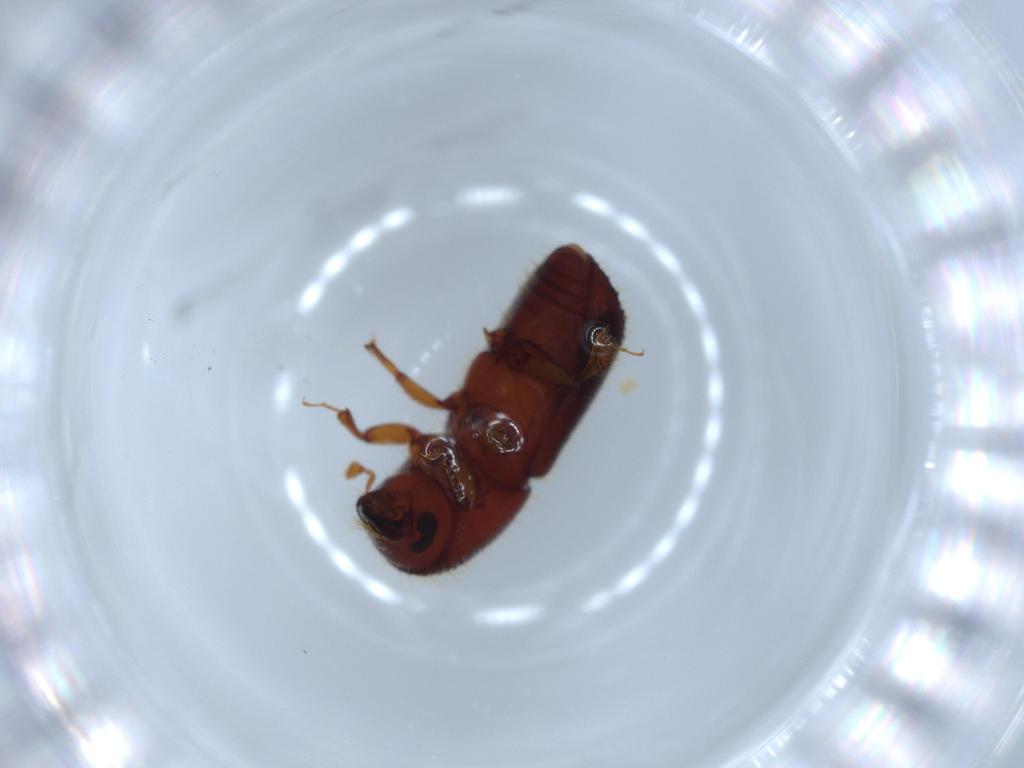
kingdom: Animalia
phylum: Arthropoda
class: Insecta
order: Coleoptera
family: Curculionidae
